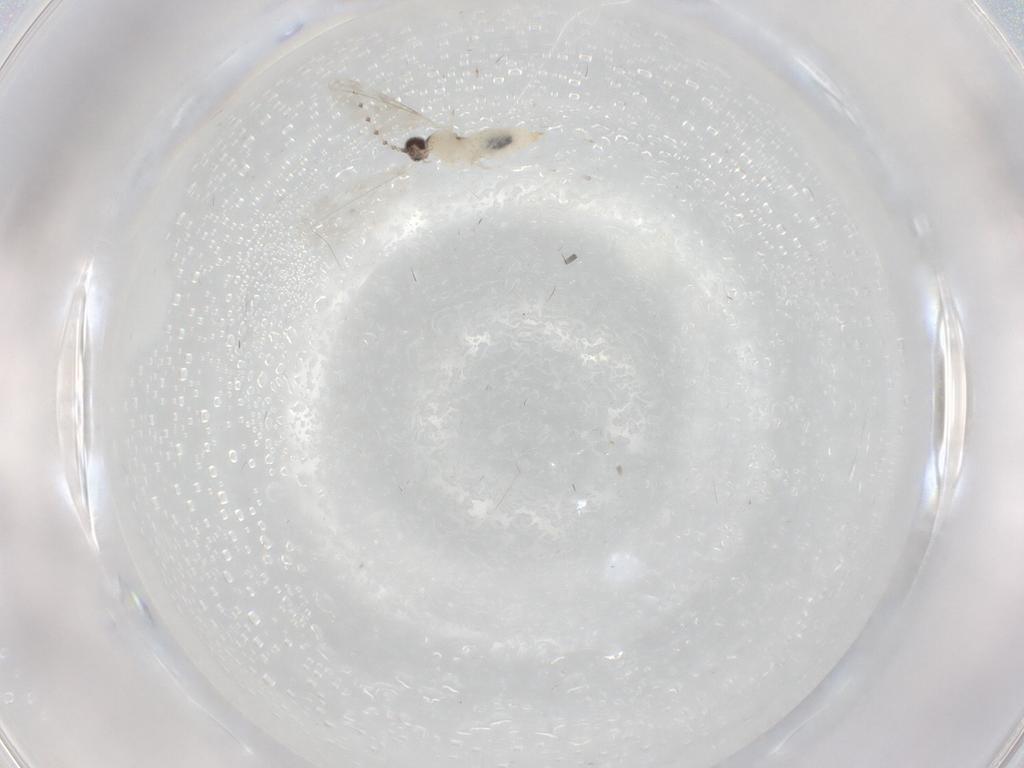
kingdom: Animalia
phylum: Arthropoda
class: Insecta
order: Diptera
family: Cecidomyiidae
